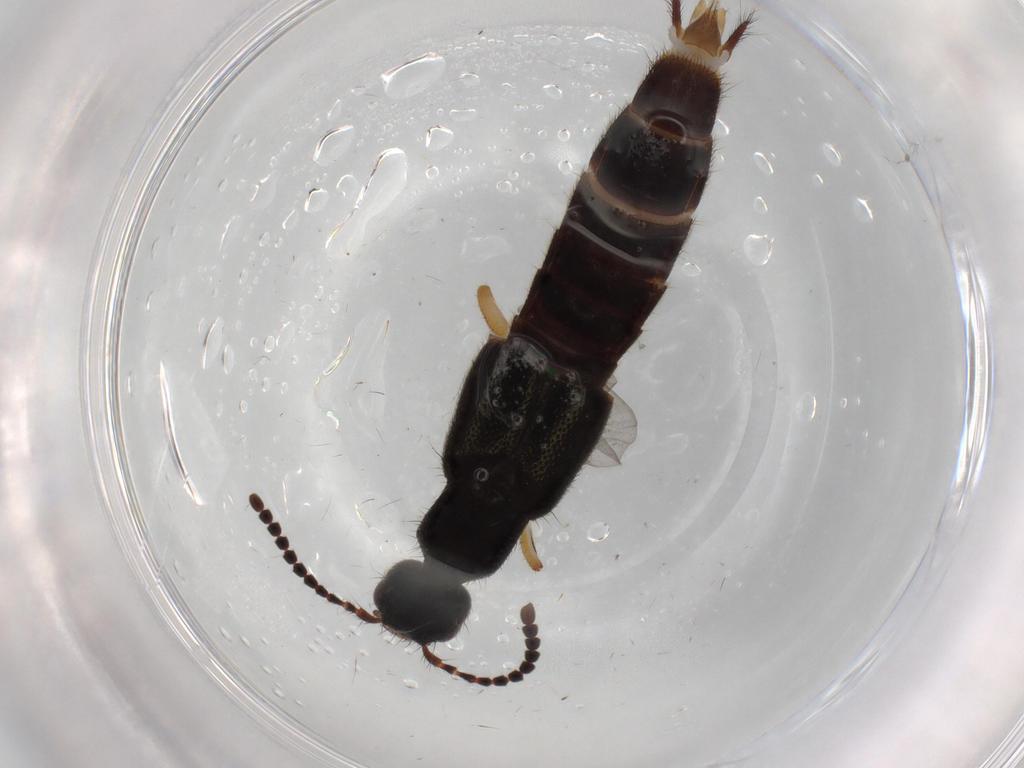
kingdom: Animalia
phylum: Arthropoda
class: Insecta
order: Coleoptera
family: Staphylinidae
